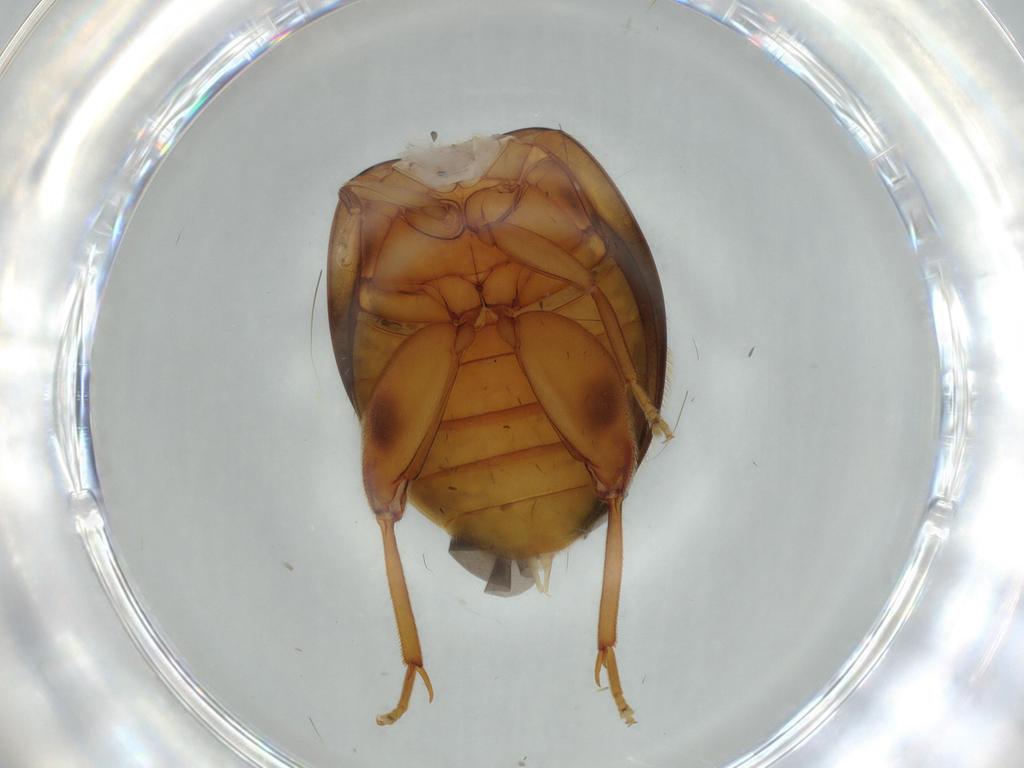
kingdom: Animalia
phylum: Arthropoda
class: Insecta
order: Coleoptera
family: Scirtidae
